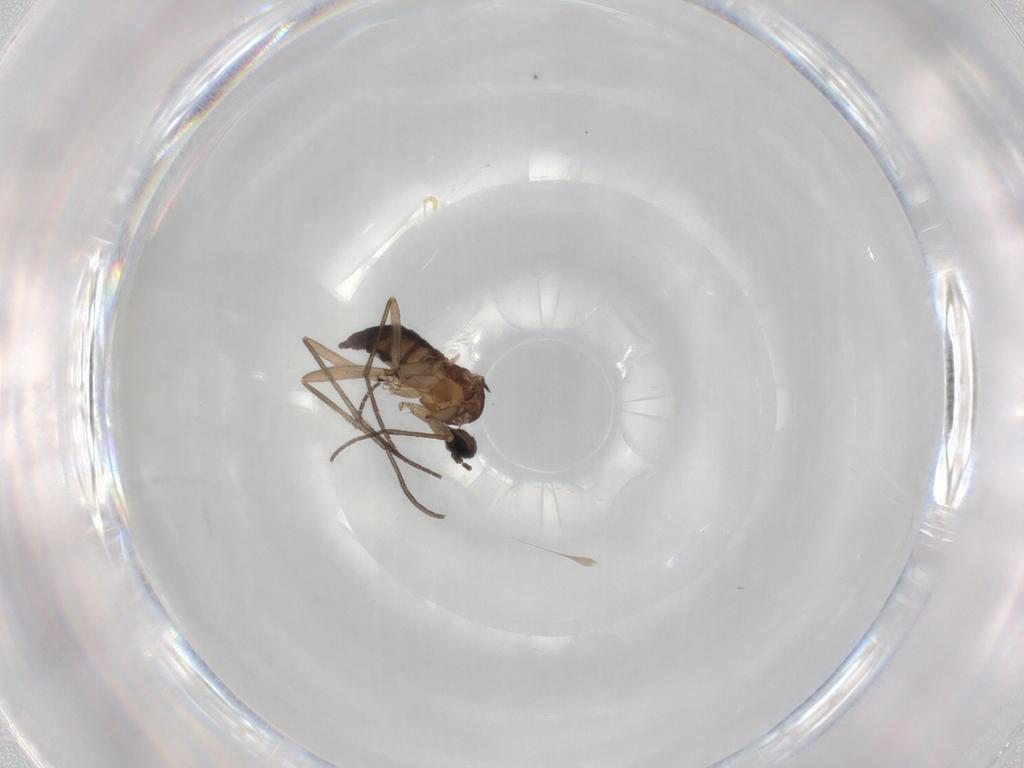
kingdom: Animalia
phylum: Arthropoda
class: Insecta
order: Diptera
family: Sciaridae
